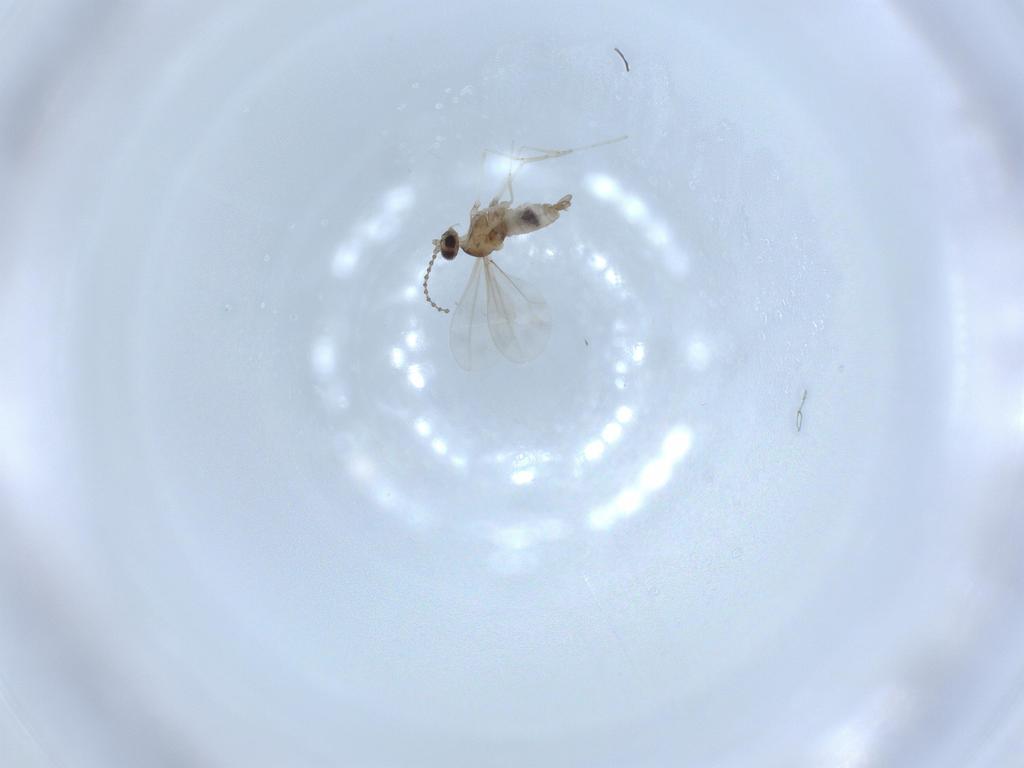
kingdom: Animalia
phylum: Arthropoda
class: Insecta
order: Diptera
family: Cecidomyiidae
